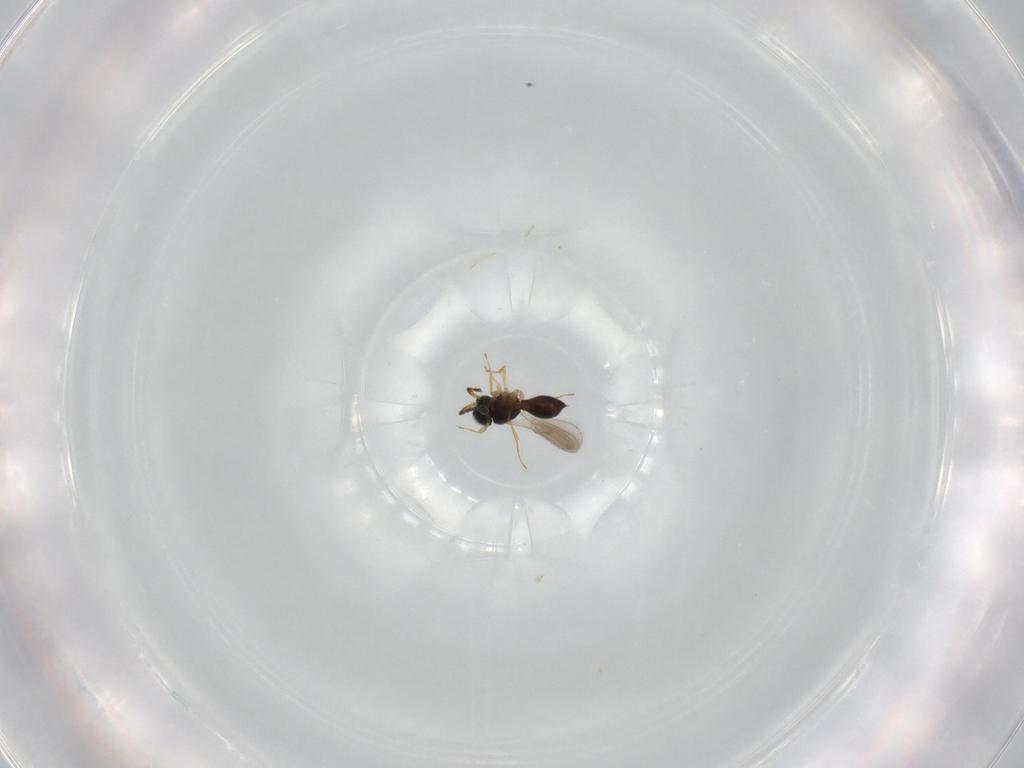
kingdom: Animalia
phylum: Arthropoda
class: Insecta
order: Hymenoptera
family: Scelionidae
